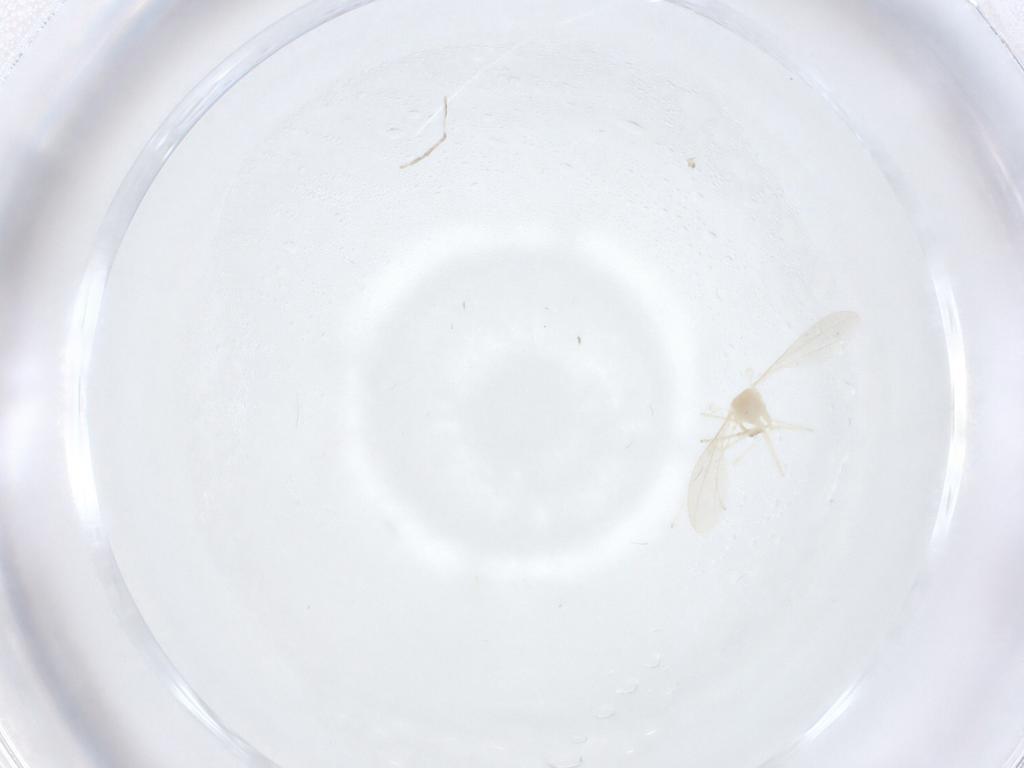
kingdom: Animalia
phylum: Arthropoda
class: Insecta
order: Diptera
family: Cecidomyiidae
